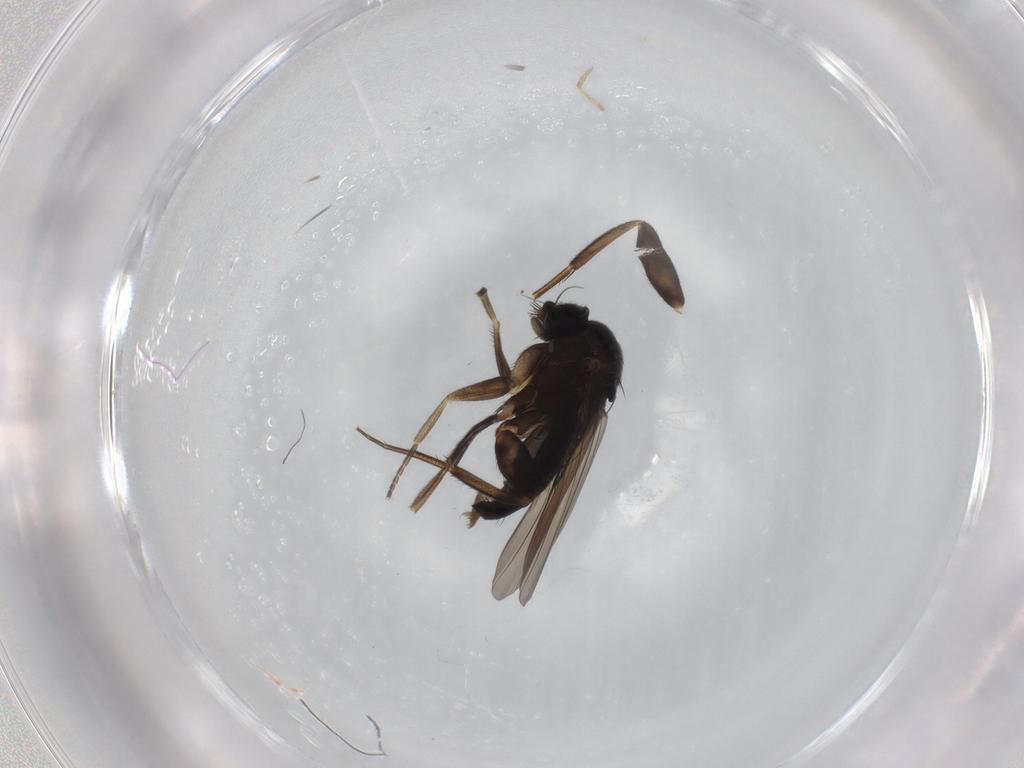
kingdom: Animalia
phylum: Arthropoda
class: Insecta
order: Diptera
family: Phoridae
